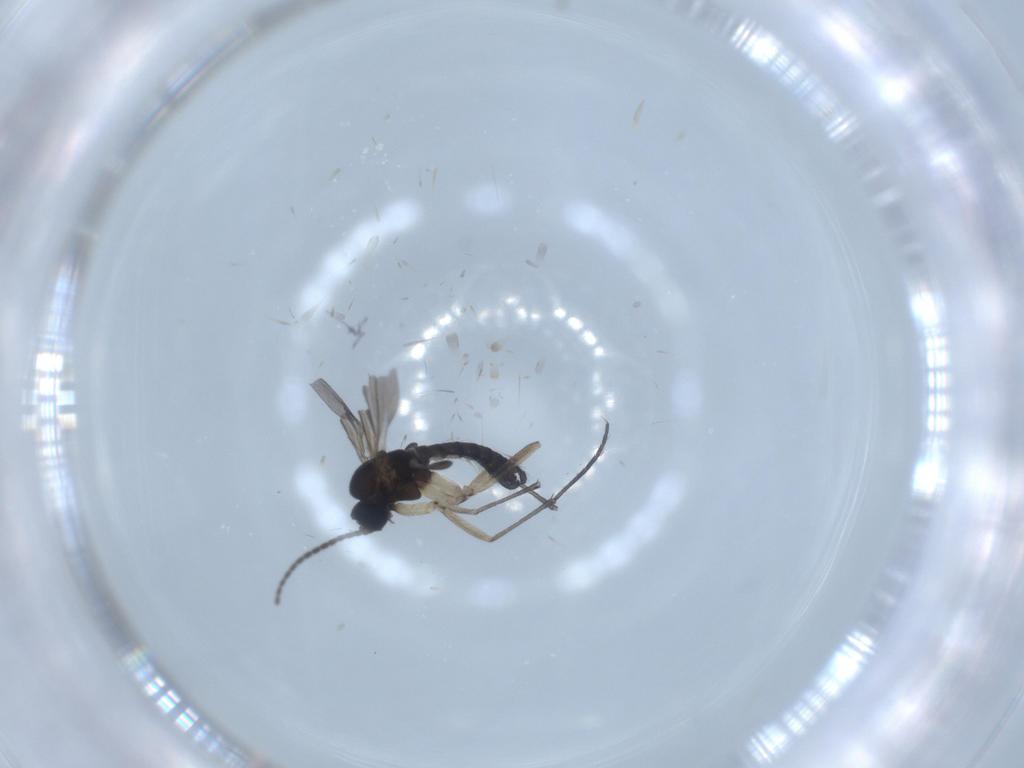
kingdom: Animalia
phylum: Arthropoda
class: Insecta
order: Diptera
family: Sciaridae
